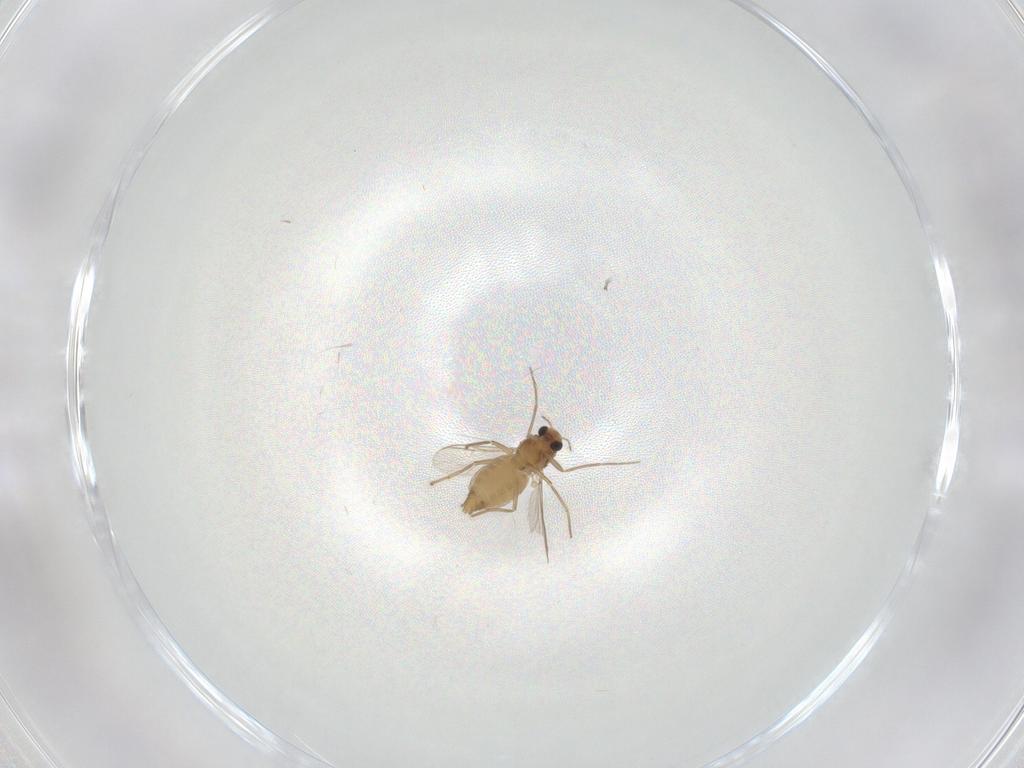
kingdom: Animalia
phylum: Arthropoda
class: Insecta
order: Diptera
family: Chironomidae
